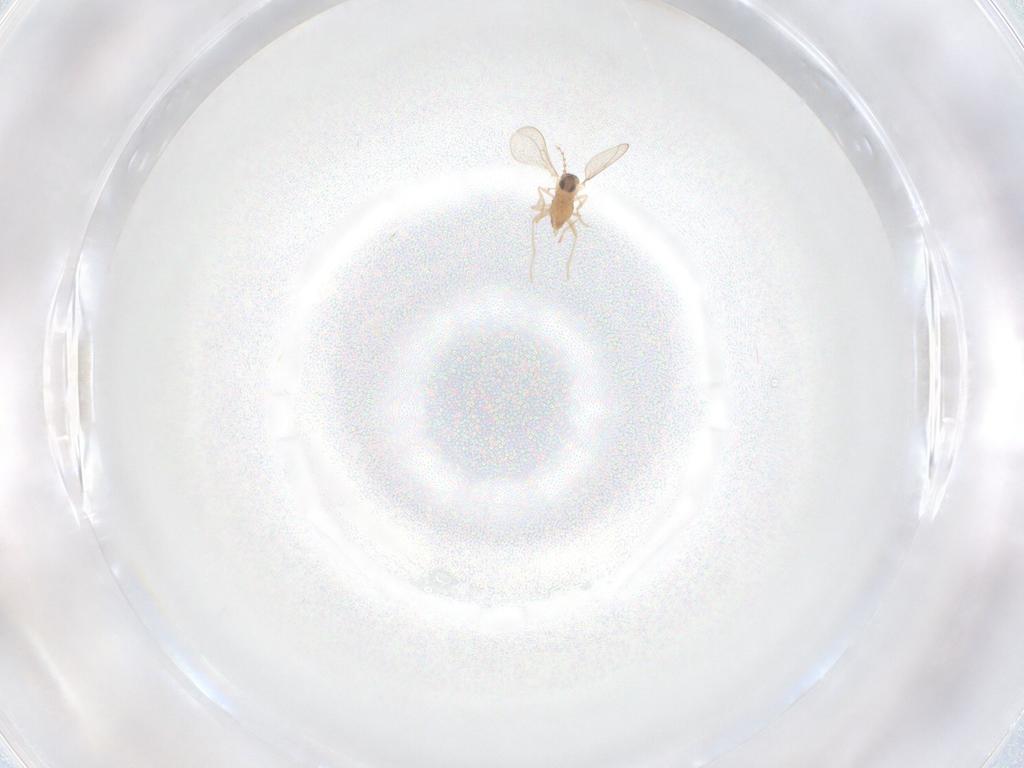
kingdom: Animalia
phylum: Arthropoda
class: Insecta
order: Diptera
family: Cecidomyiidae
